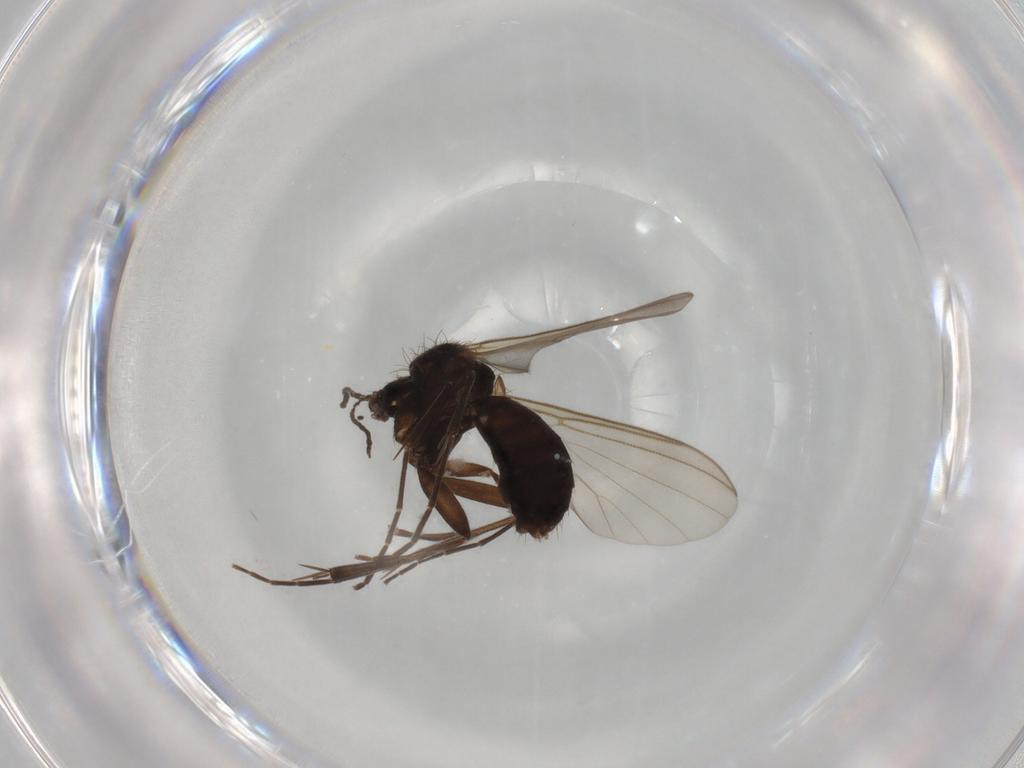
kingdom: Animalia
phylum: Arthropoda
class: Insecta
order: Diptera
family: Mycetophilidae
